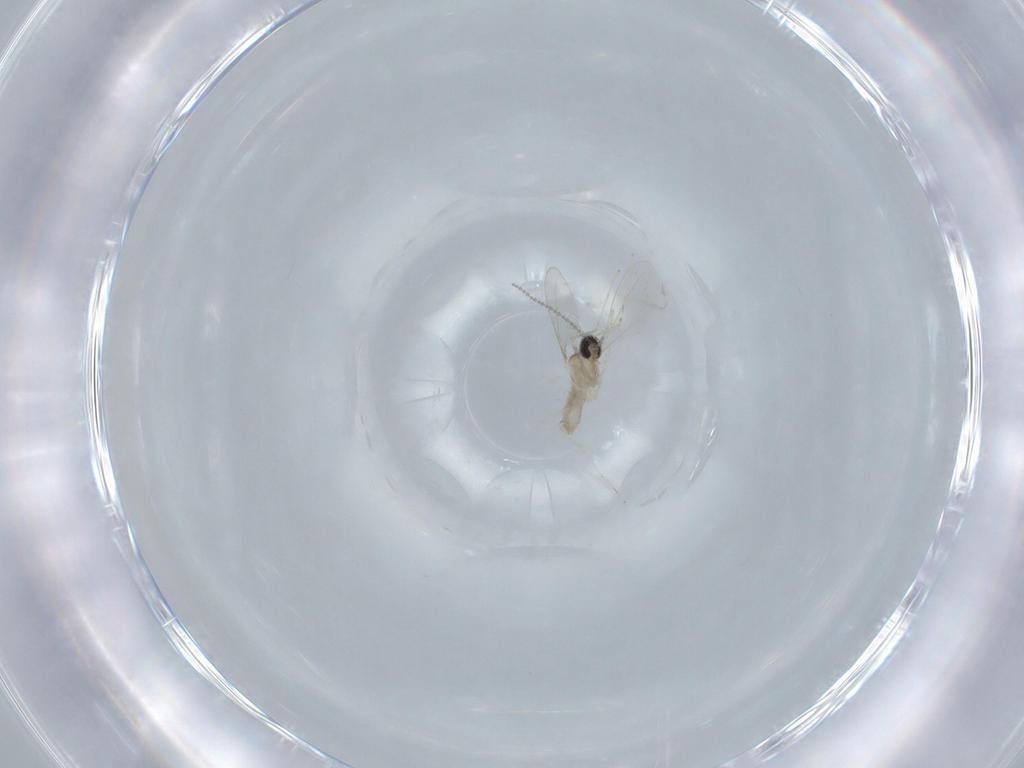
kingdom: Animalia
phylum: Arthropoda
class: Insecta
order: Diptera
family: Cecidomyiidae
